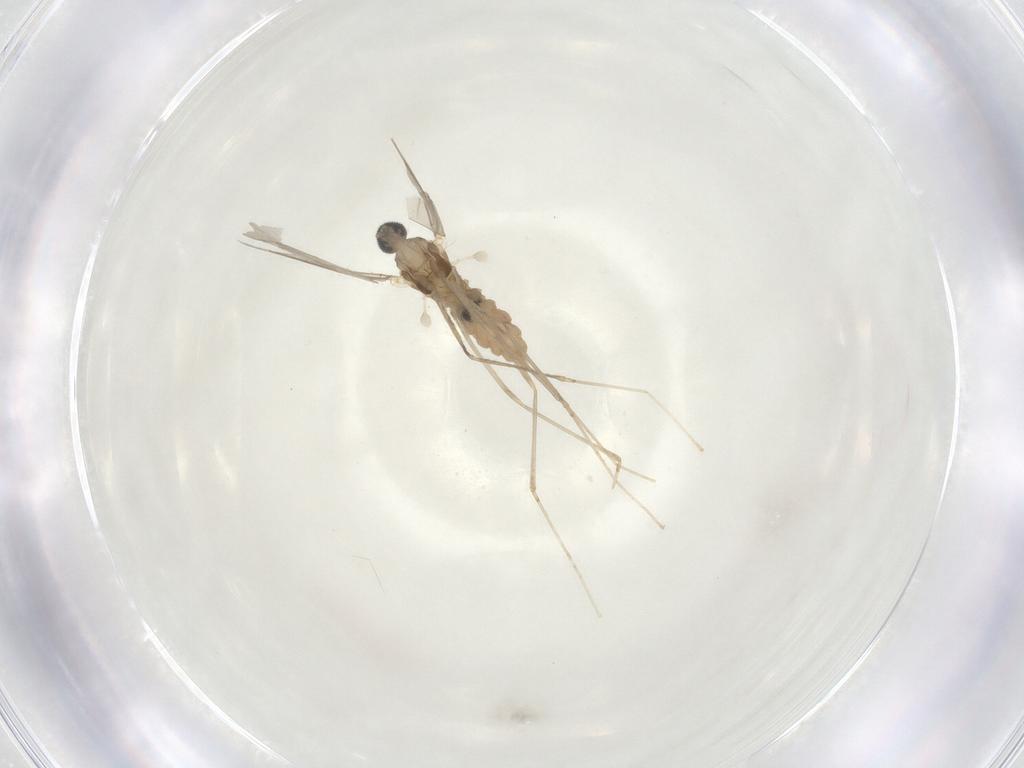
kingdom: Animalia
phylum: Arthropoda
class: Insecta
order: Diptera
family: Cecidomyiidae
